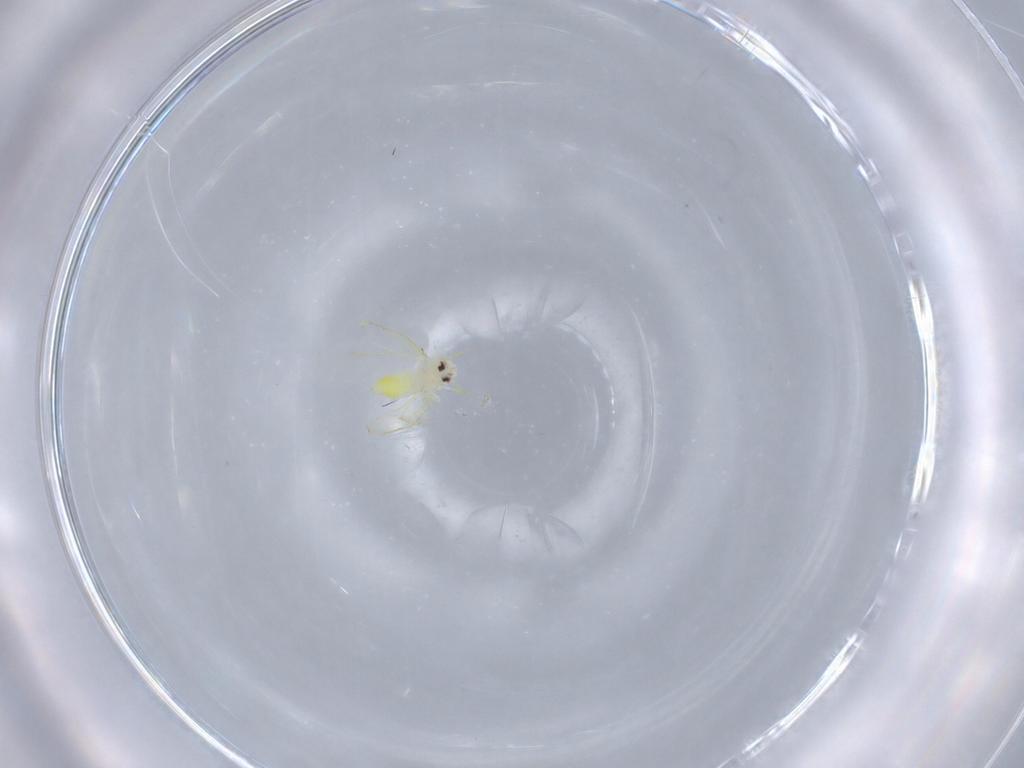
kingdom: Animalia
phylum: Arthropoda
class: Insecta
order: Hemiptera
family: Aleyrodidae
